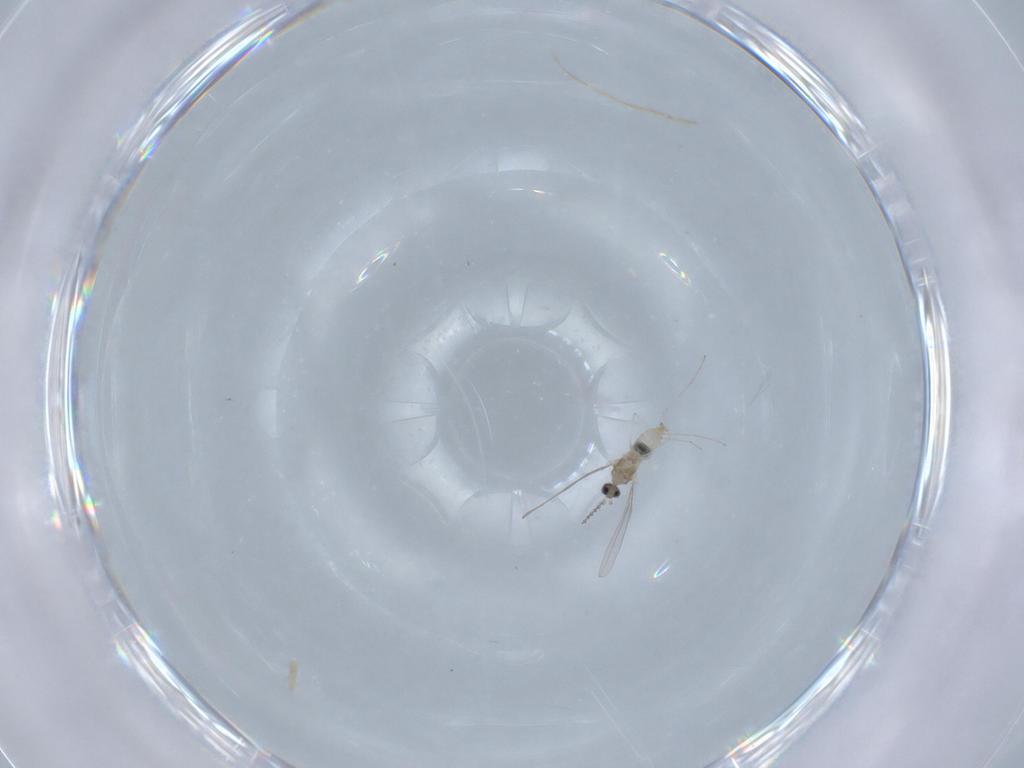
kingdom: Animalia
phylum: Arthropoda
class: Insecta
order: Diptera
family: Cecidomyiidae
